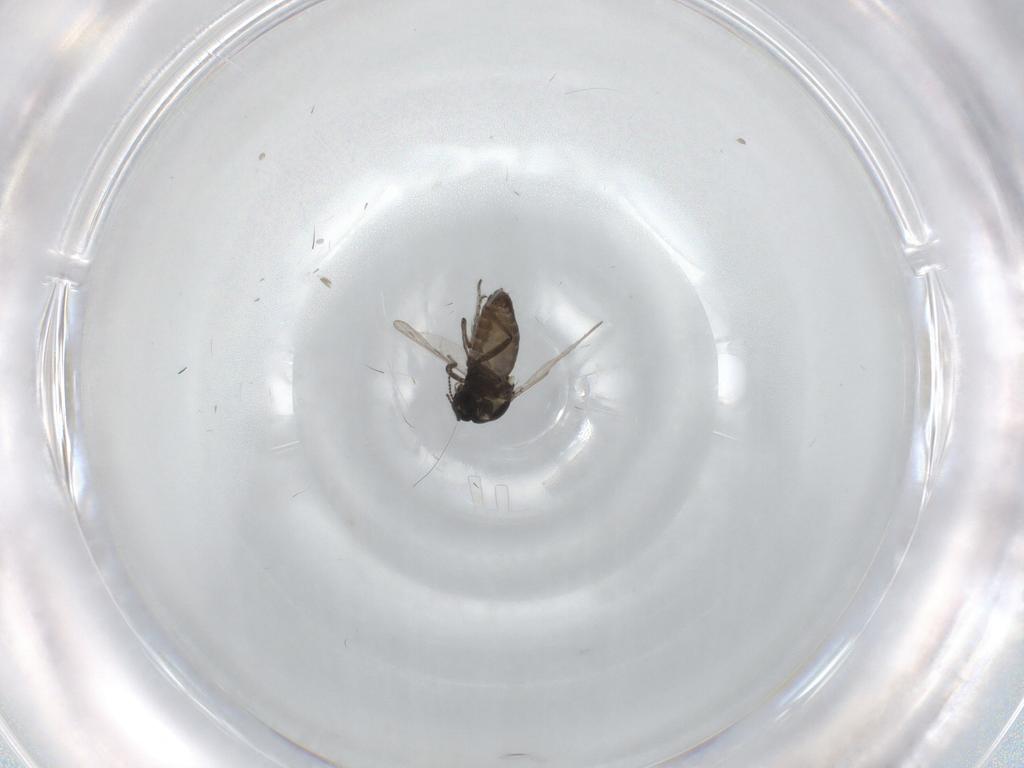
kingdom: Animalia
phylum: Arthropoda
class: Insecta
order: Diptera
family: Ceratopogonidae
